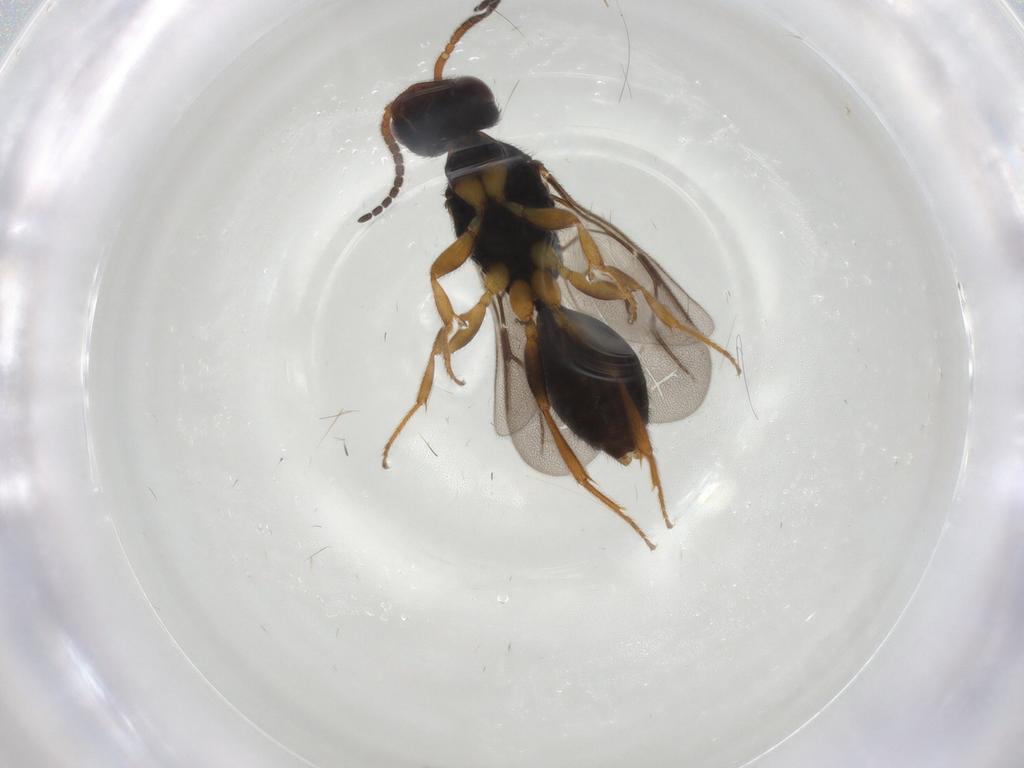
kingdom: Animalia
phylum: Arthropoda
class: Insecta
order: Hymenoptera
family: Bethylidae
